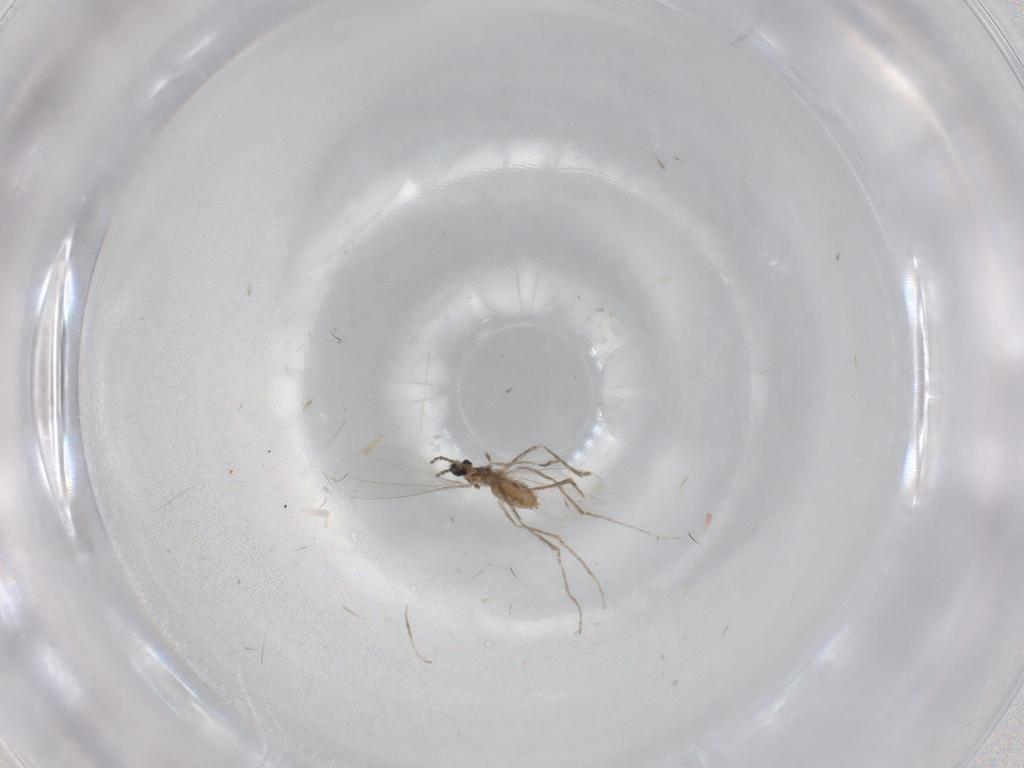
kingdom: Animalia
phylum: Arthropoda
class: Insecta
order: Diptera
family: Cecidomyiidae
